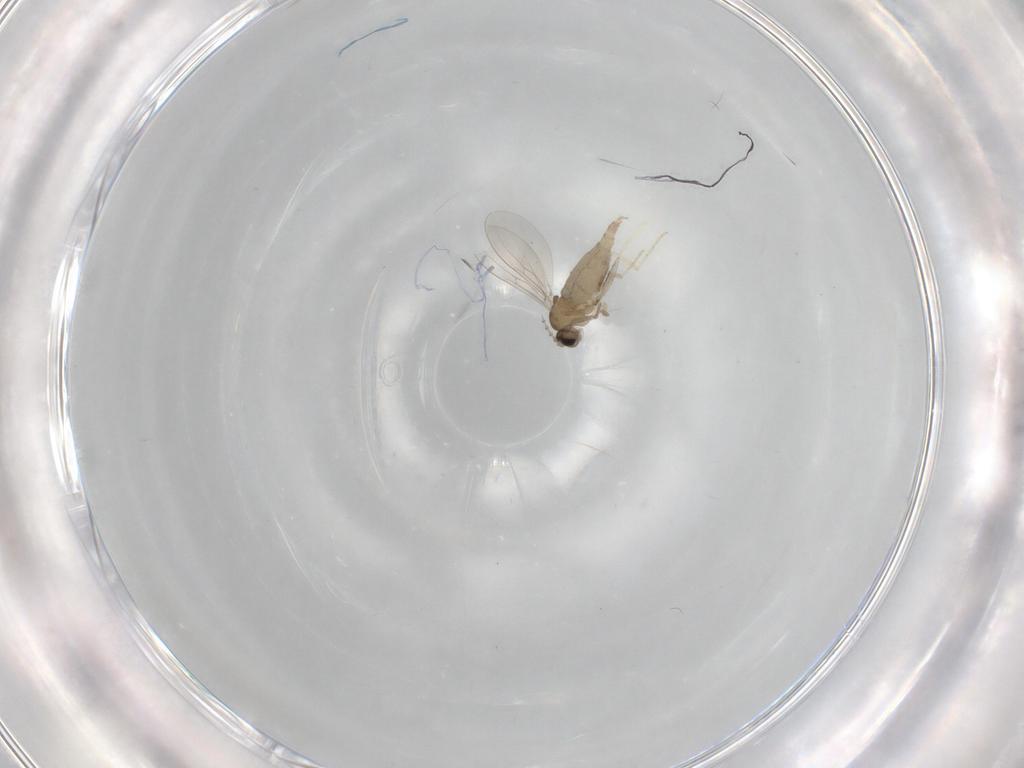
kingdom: Animalia
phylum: Arthropoda
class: Insecta
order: Diptera
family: Cecidomyiidae
